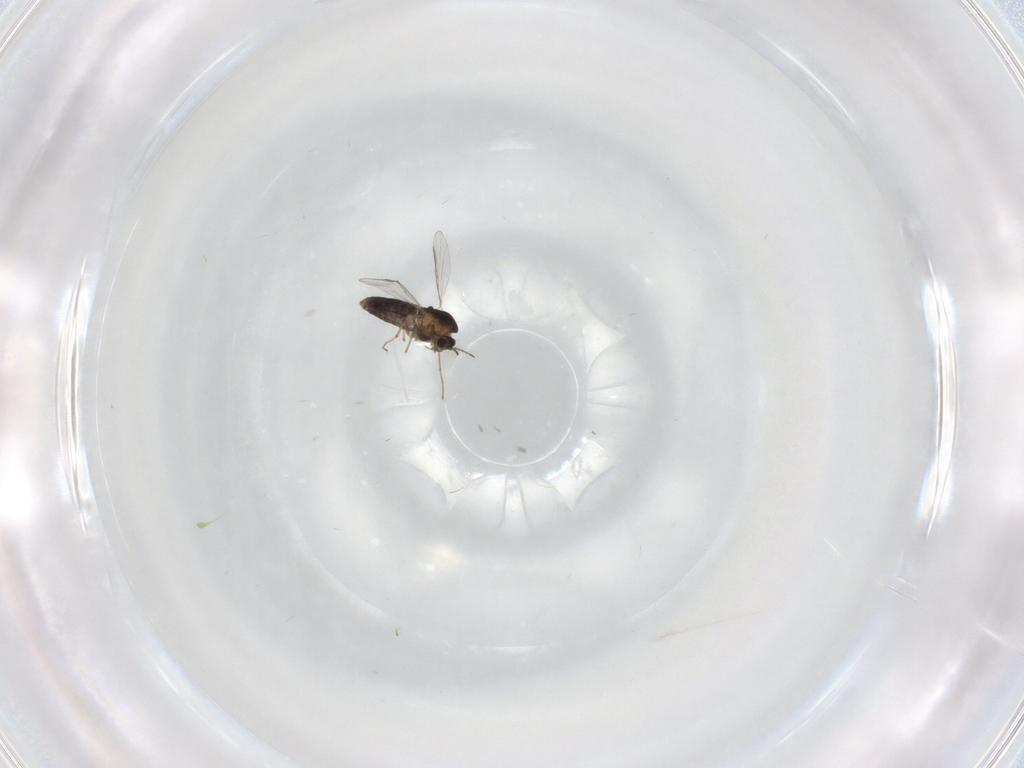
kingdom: Animalia
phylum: Arthropoda
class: Insecta
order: Diptera
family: Chironomidae
